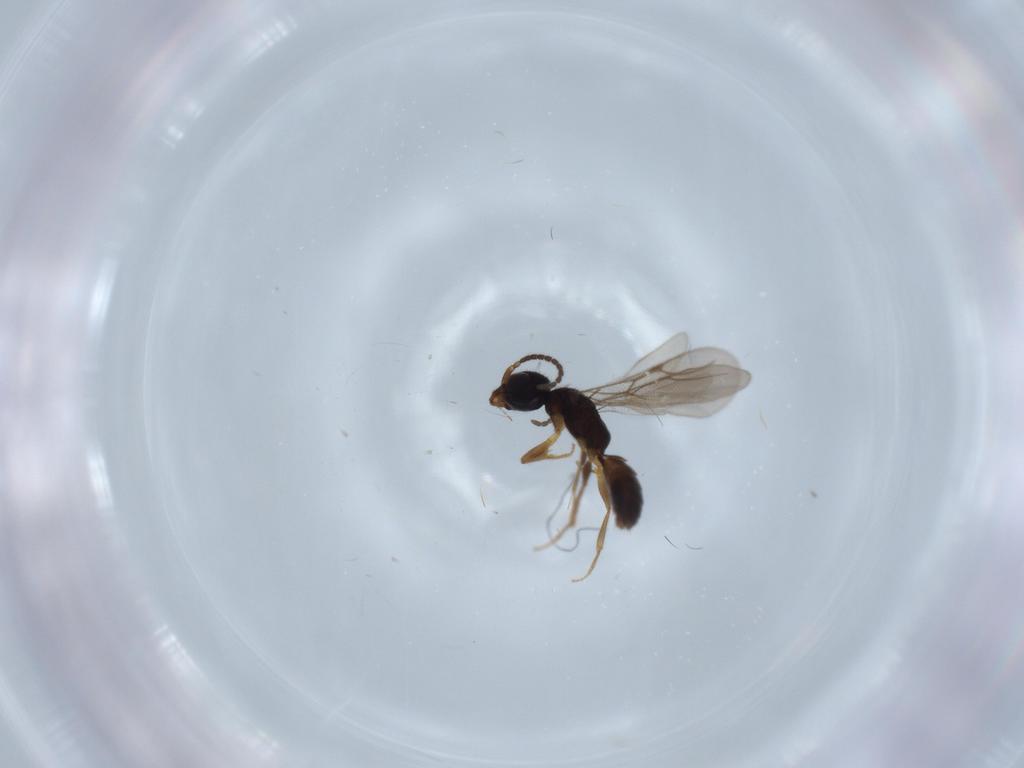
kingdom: Animalia
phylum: Arthropoda
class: Insecta
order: Hymenoptera
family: Bethylidae
